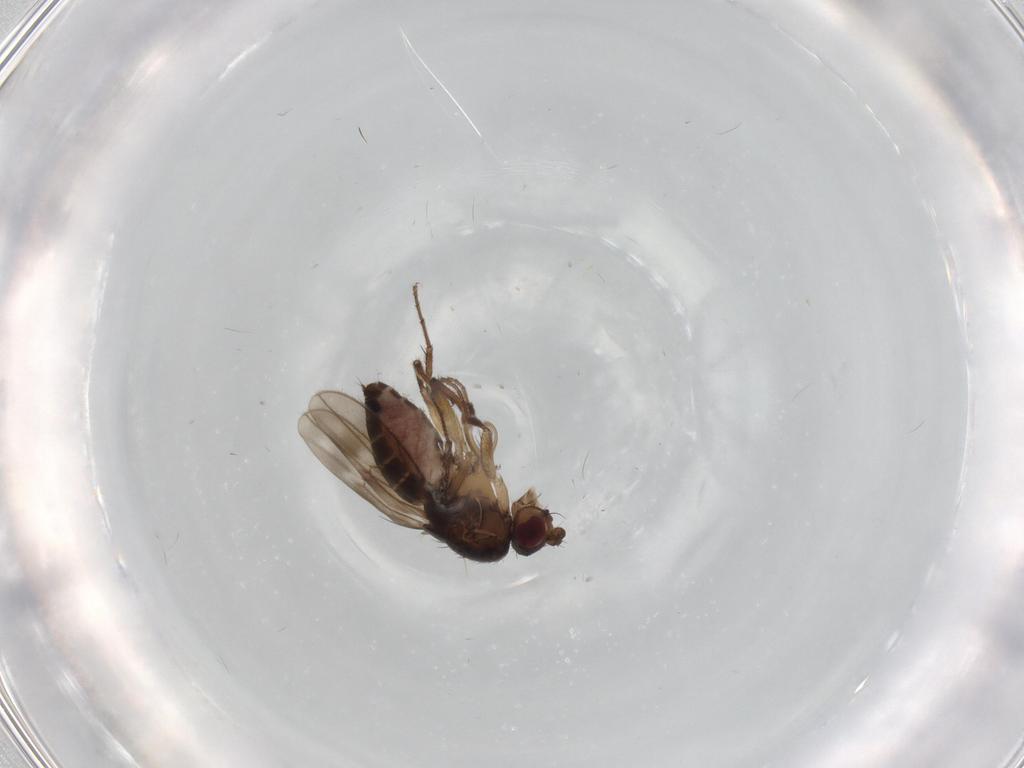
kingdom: Animalia
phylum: Arthropoda
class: Insecta
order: Diptera
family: Sphaeroceridae
